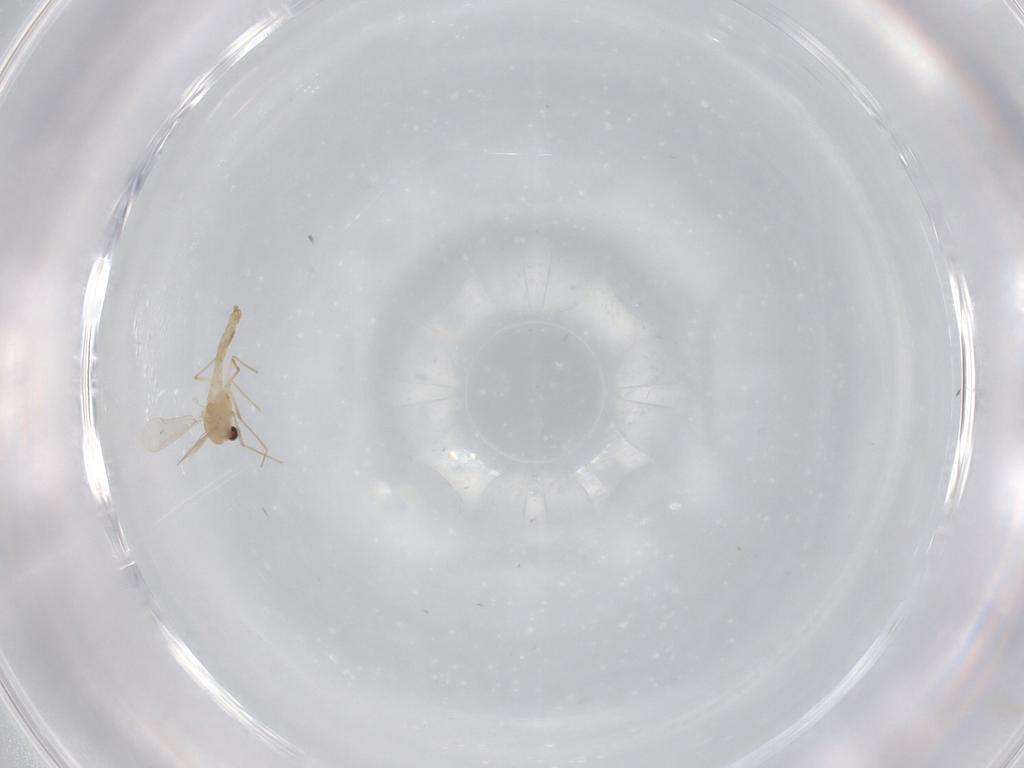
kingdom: Animalia
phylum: Arthropoda
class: Insecta
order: Diptera
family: Chironomidae
